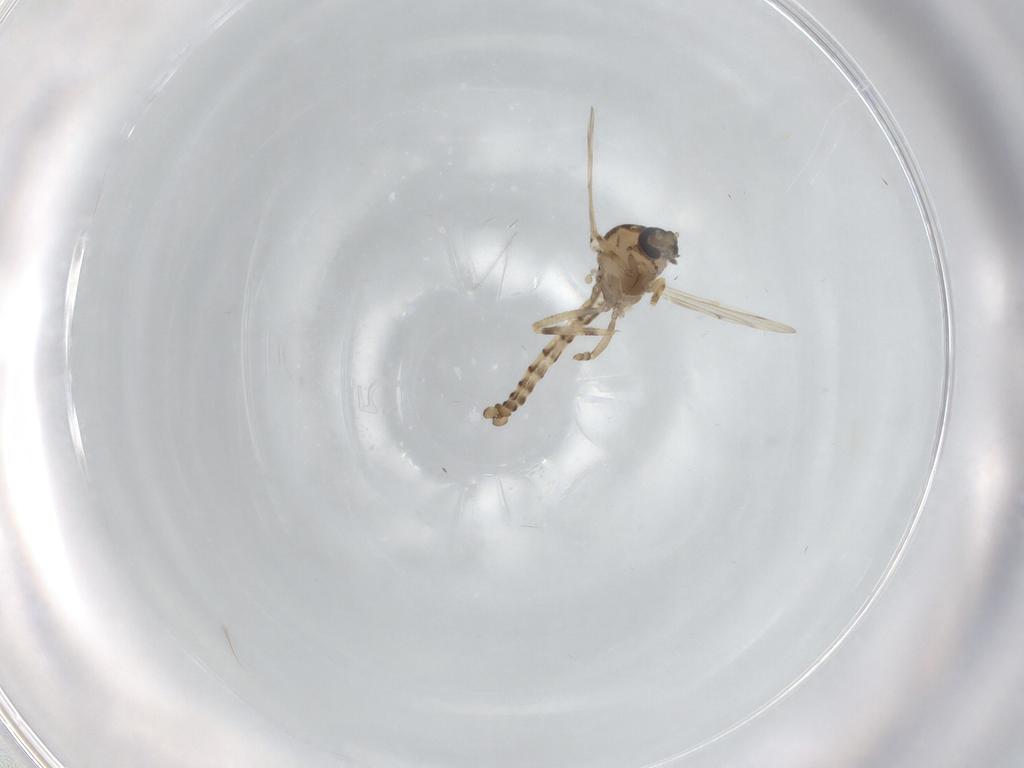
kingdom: Animalia
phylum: Arthropoda
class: Insecta
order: Diptera
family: Ceratopogonidae
